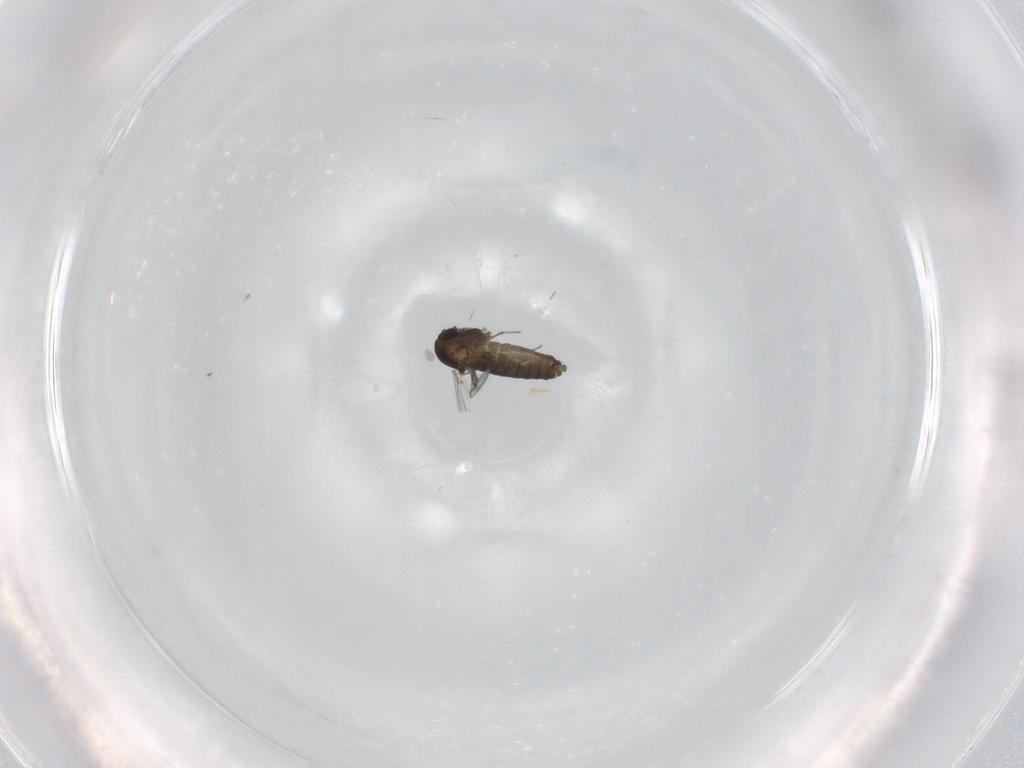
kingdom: Animalia
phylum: Arthropoda
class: Insecta
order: Diptera
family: Chironomidae
